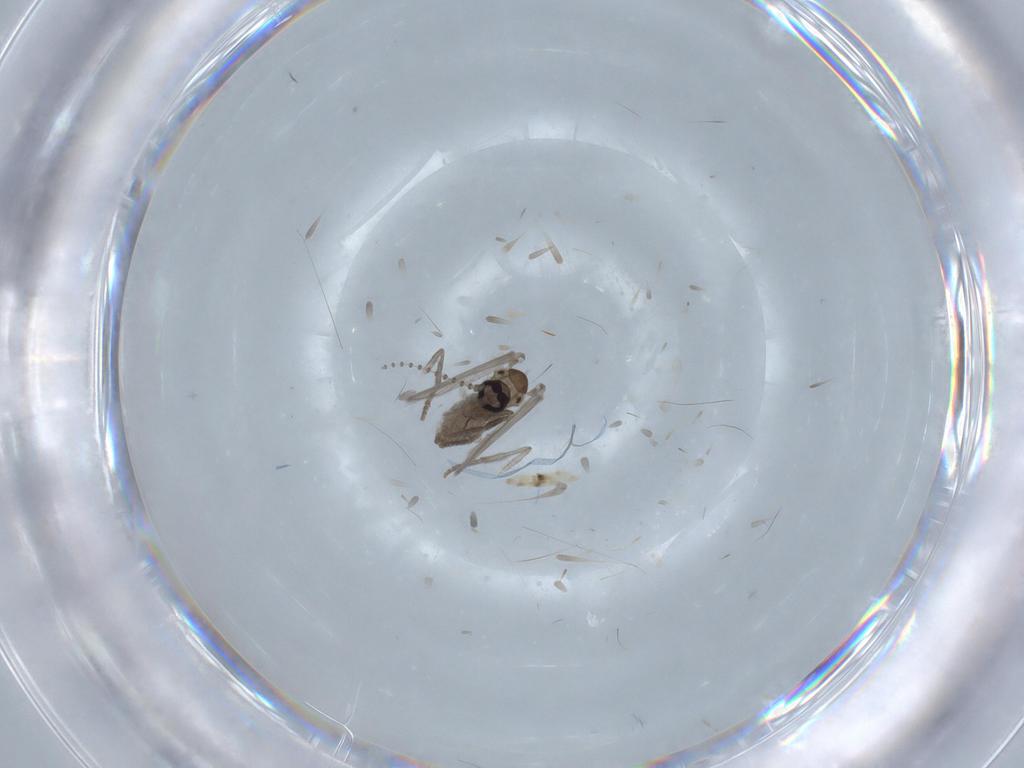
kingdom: Animalia
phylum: Arthropoda
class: Insecta
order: Diptera
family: Psychodidae
